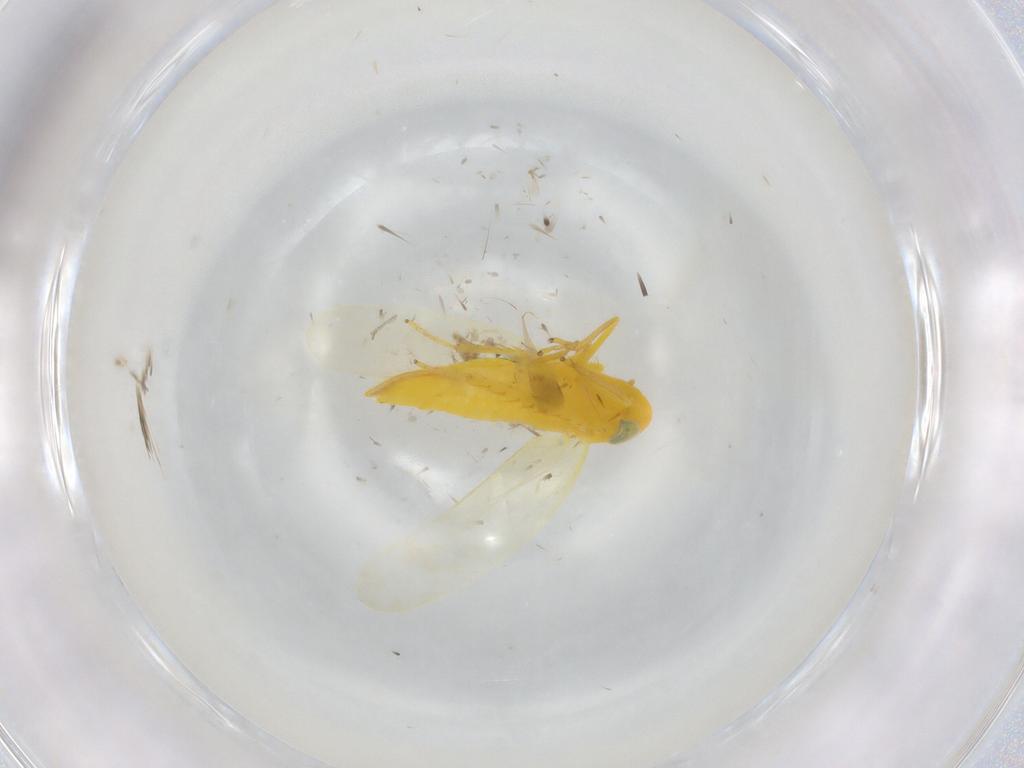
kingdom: Animalia
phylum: Arthropoda
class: Insecta
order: Hemiptera
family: Cicadellidae
